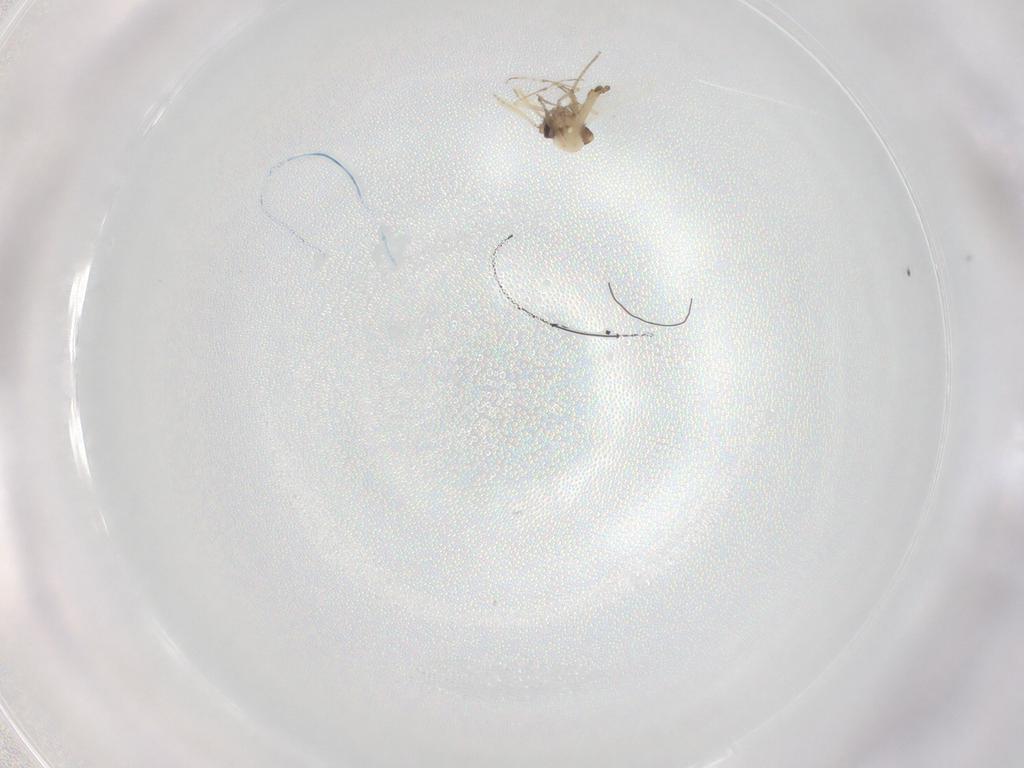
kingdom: Animalia
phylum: Arthropoda
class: Insecta
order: Diptera
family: Ceratopogonidae
